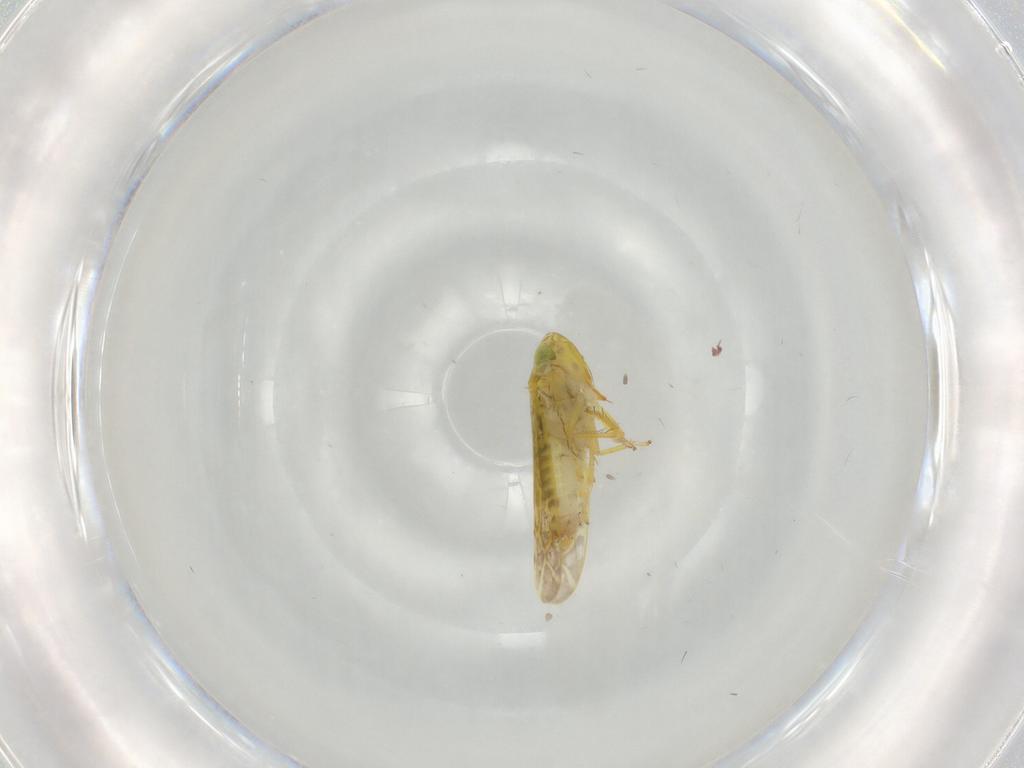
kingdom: Animalia
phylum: Arthropoda
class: Insecta
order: Hemiptera
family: Cicadellidae
